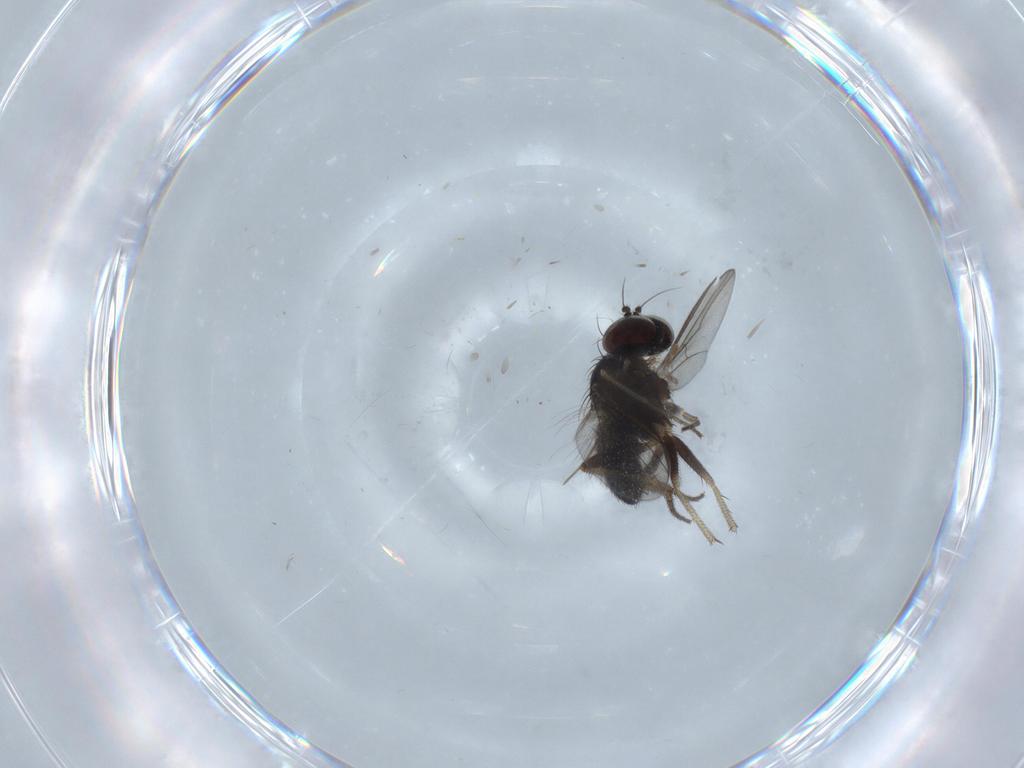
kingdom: Animalia
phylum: Arthropoda
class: Insecta
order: Diptera
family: Chironomidae
